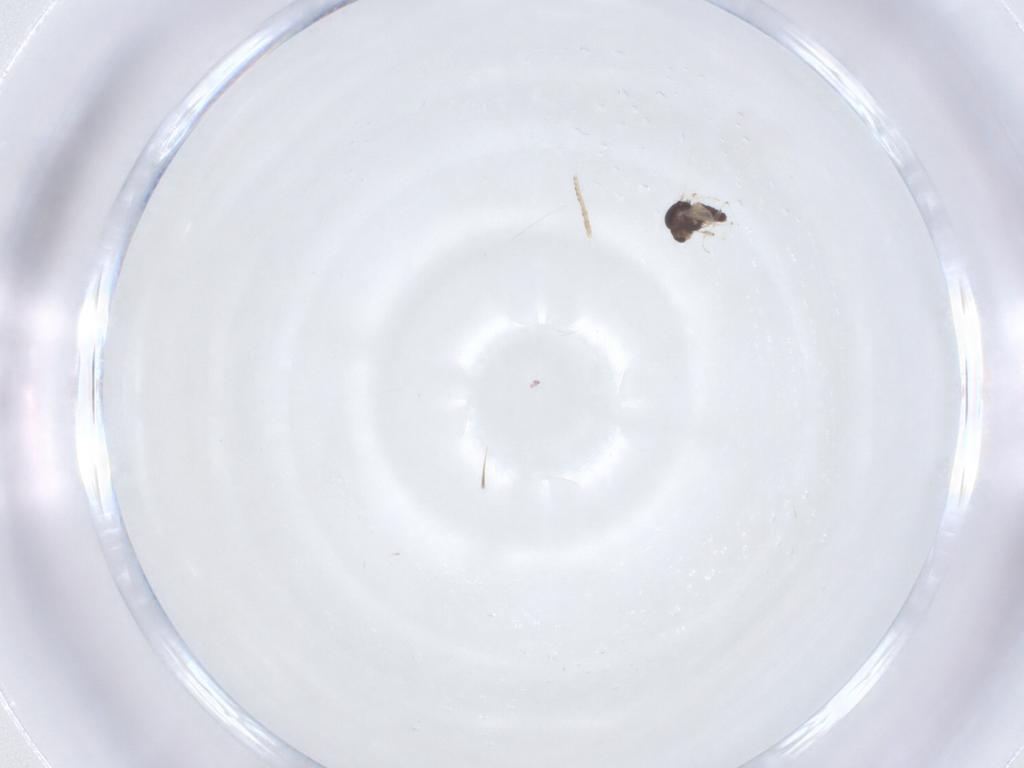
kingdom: Animalia
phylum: Arthropoda
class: Insecta
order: Diptera
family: Chironomidae
